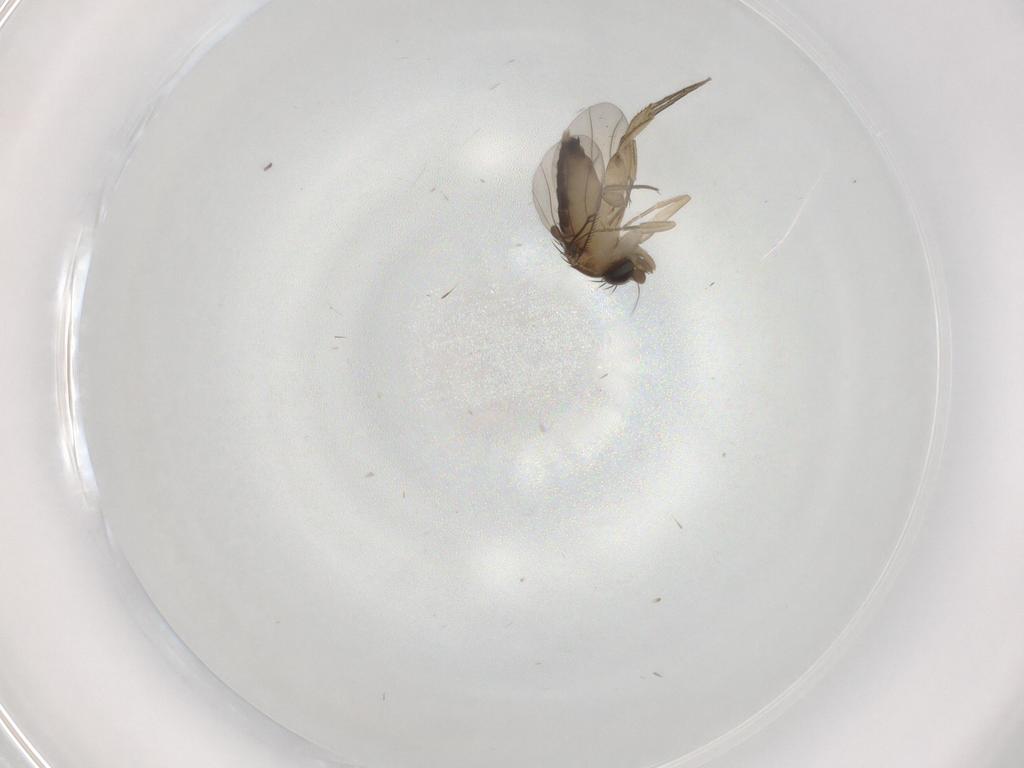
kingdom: Animalia
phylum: Arthropoda
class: Insecta
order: Diptera
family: Phoridae
